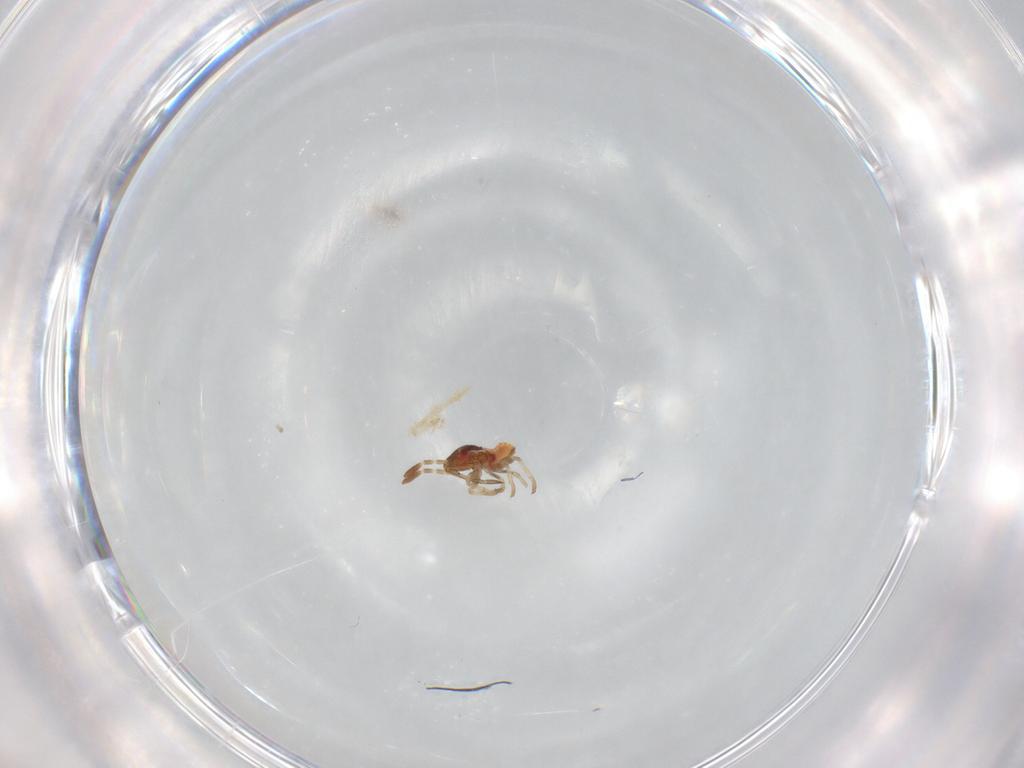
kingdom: Animalia
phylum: Arthropoda
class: Insecta
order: Hemiptera
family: Lygaeidae
